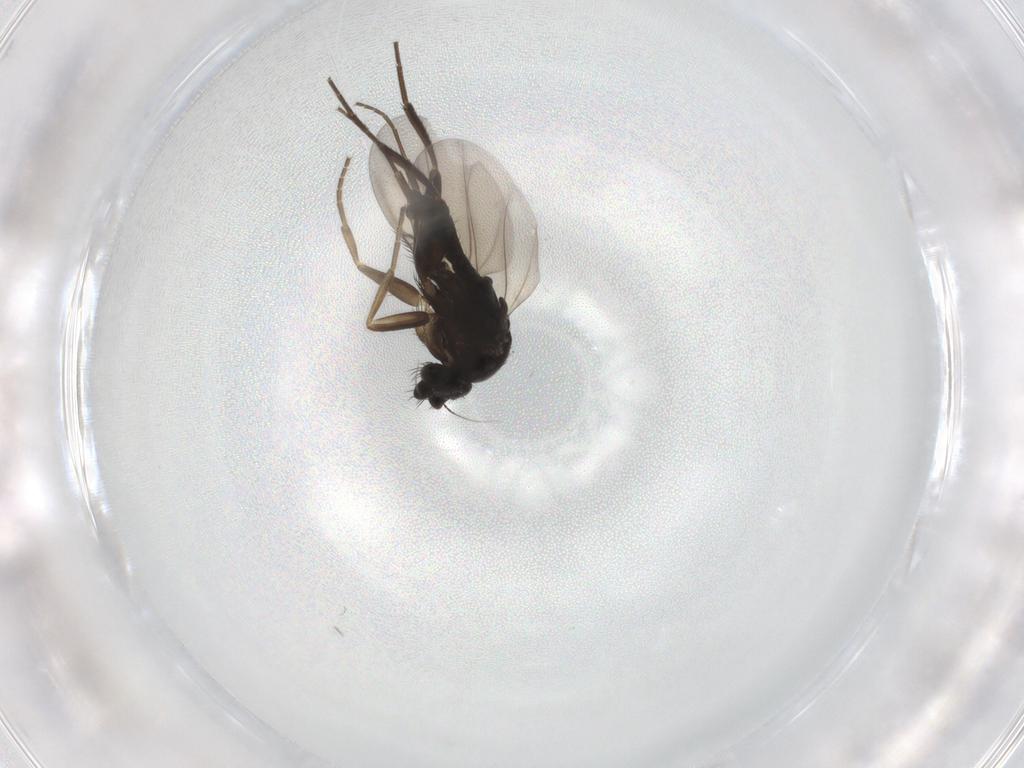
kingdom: Animalia
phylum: Arthropoda
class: Insecta
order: Diptera
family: Phoridae
